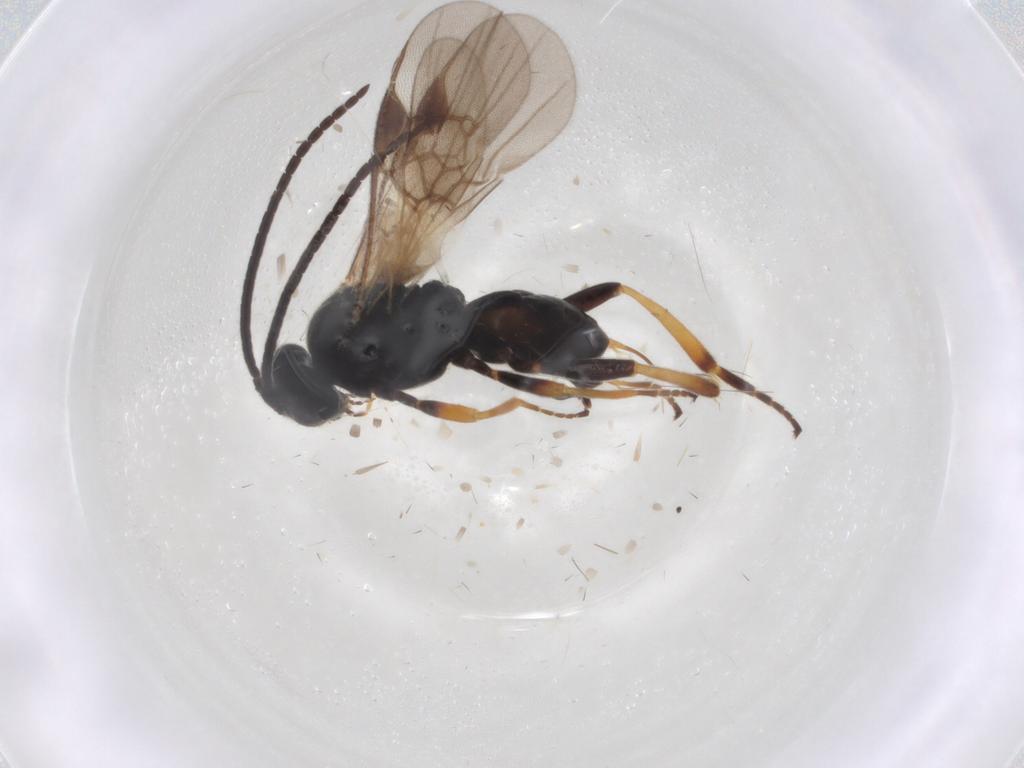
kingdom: Animalia
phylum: Arthropoda
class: Insecta
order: Hymenoptera
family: Braconidae
